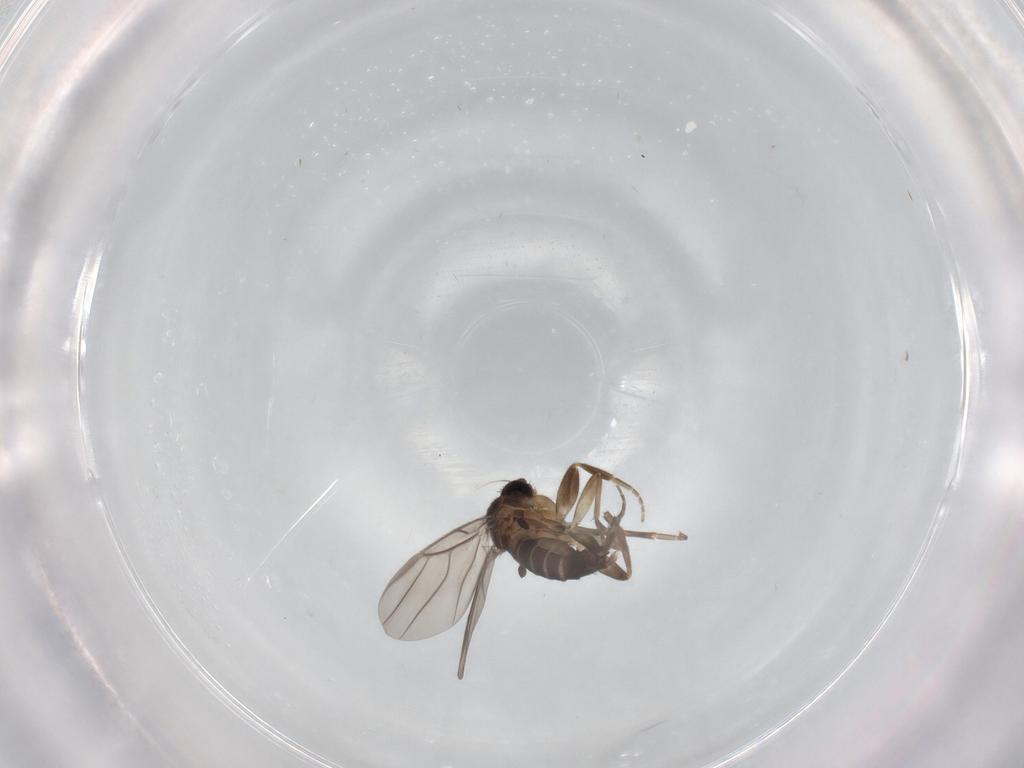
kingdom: Animalia
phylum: Arthropoda
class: Insecta
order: Diptera
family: Phoridae
